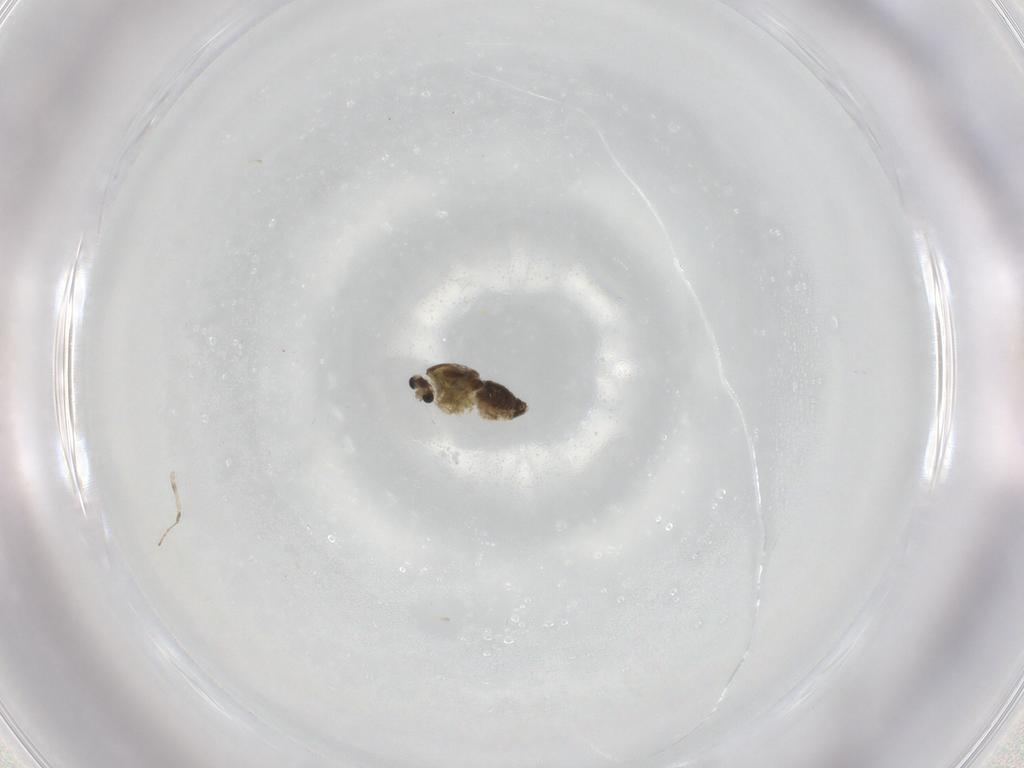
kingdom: Animalia
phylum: Arthropoda
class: Insecta
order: Diptera
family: Chironomidae
